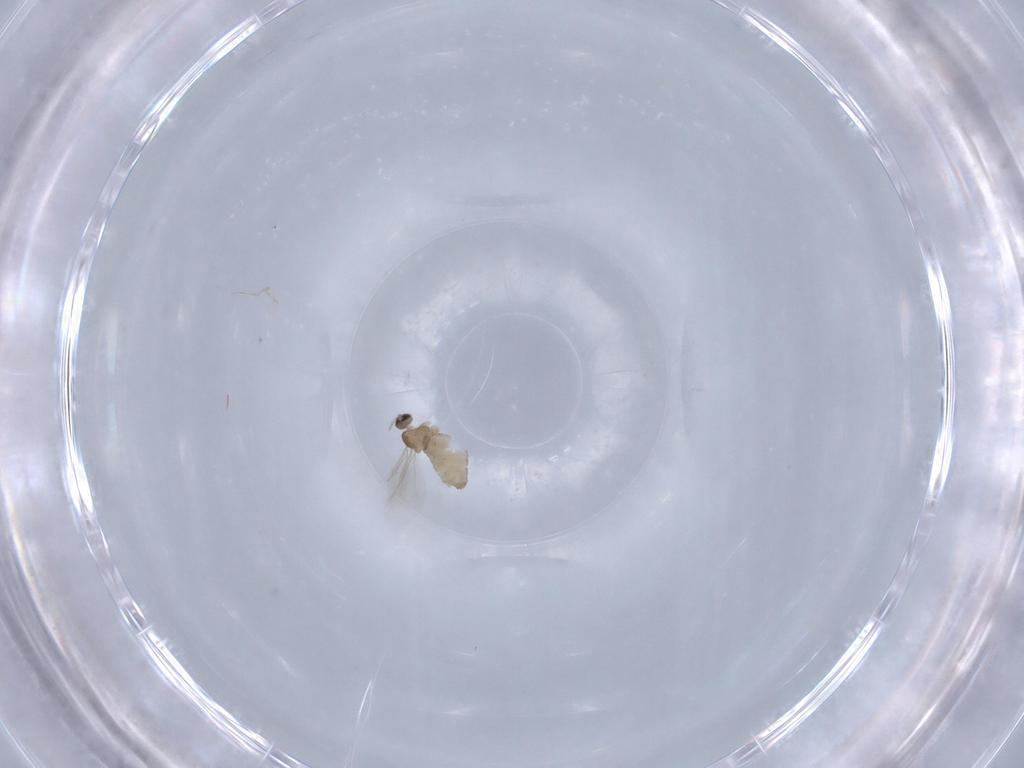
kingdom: Animalia
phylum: Arthropoda
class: Insecta
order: Diptera
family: Cecidomyiidae
